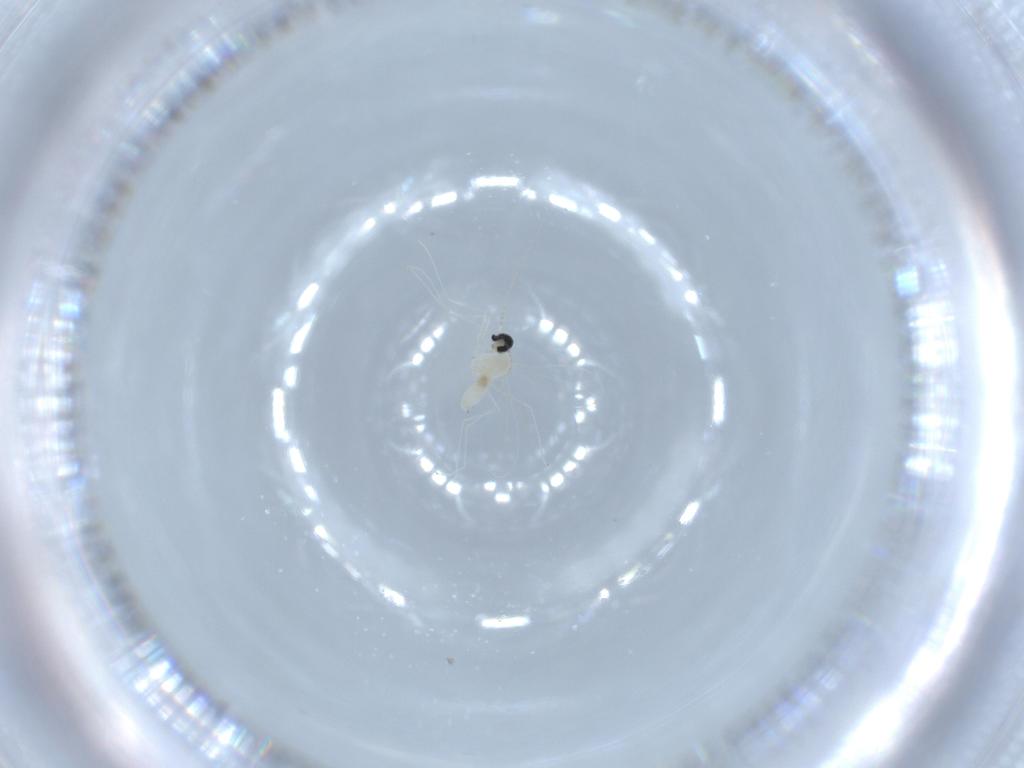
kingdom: Animalia
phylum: Arthropoda
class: Insecta
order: Diptera
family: Cecidomyiidae
